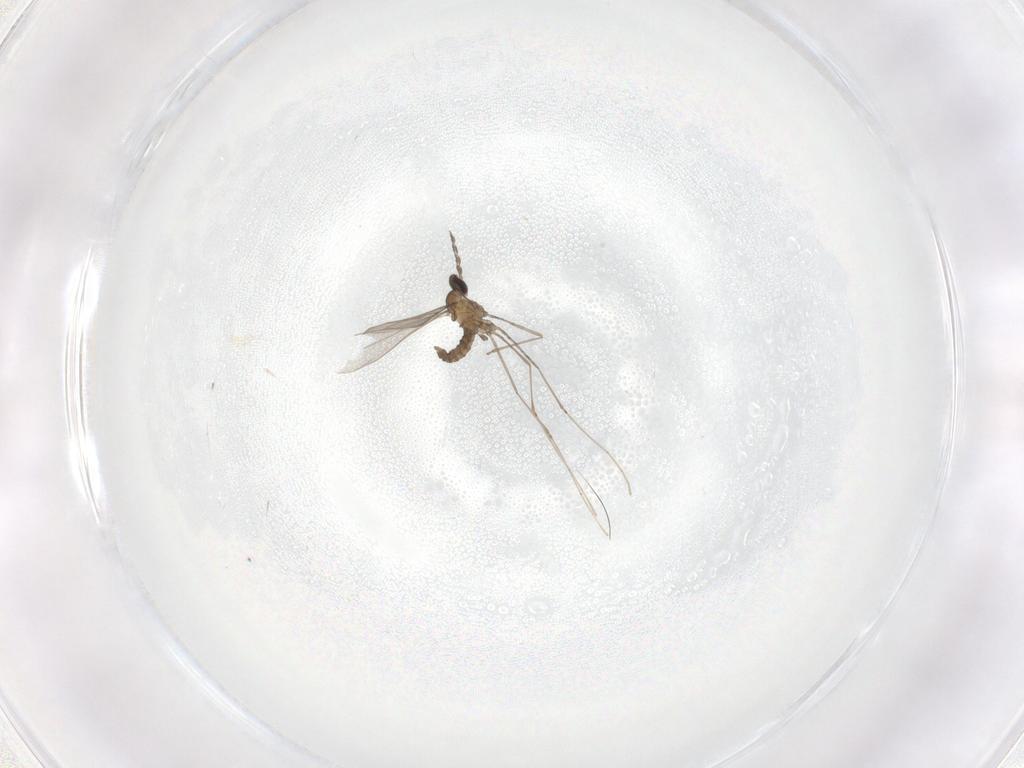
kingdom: Animalia
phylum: Arthropoda
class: Insecta
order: Diptera
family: Cecidomyiidae
